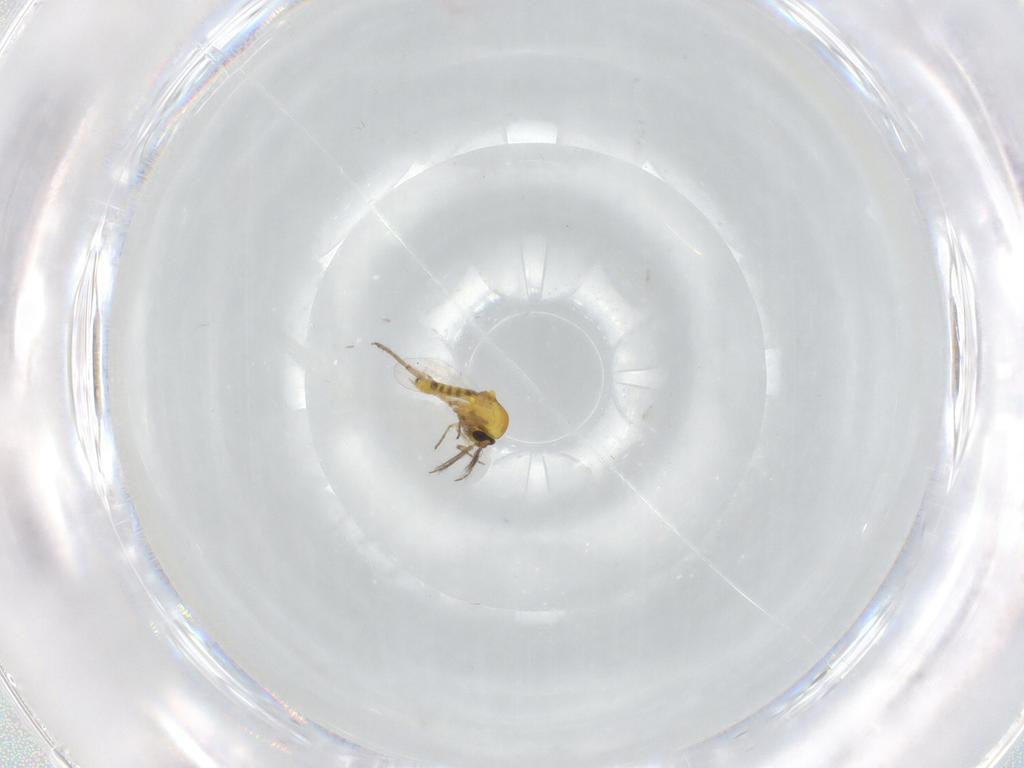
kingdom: Animalia
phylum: Arthropoda
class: Insecta
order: Diptera
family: Ceratopogonidae
